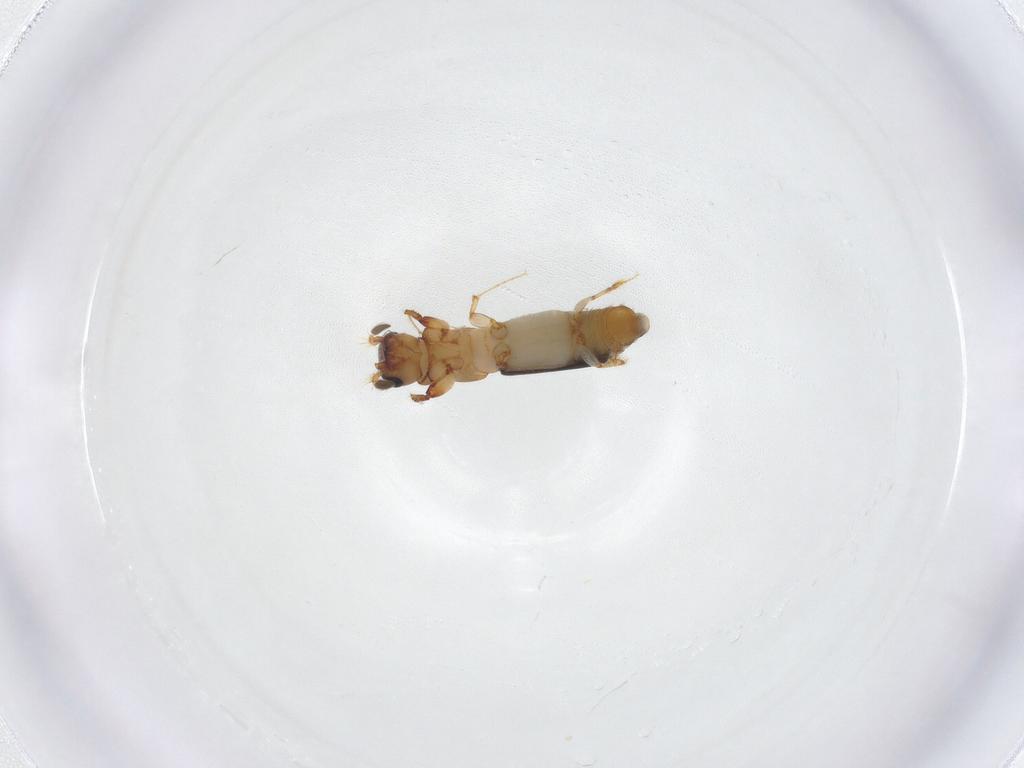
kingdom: Animalia
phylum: Arthropoda
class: Insecta
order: Coleoptera
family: Curculionidae
